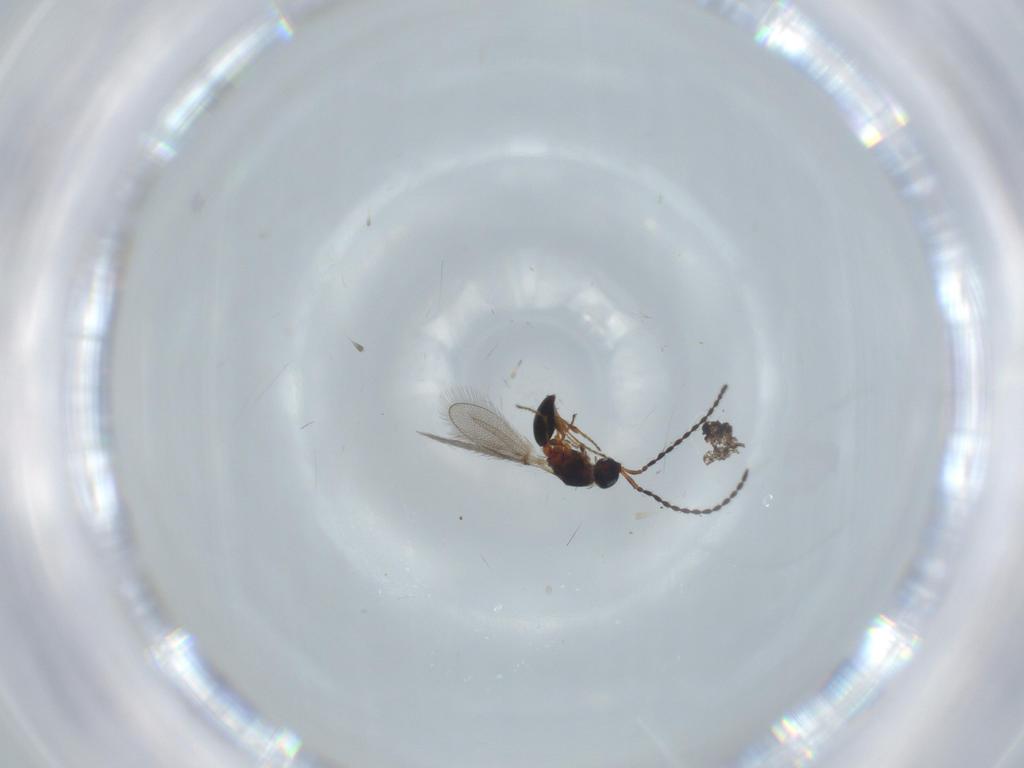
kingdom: Animalia
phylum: Arthropoda
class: Insecta
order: Hymenoptera
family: Diapriidae
